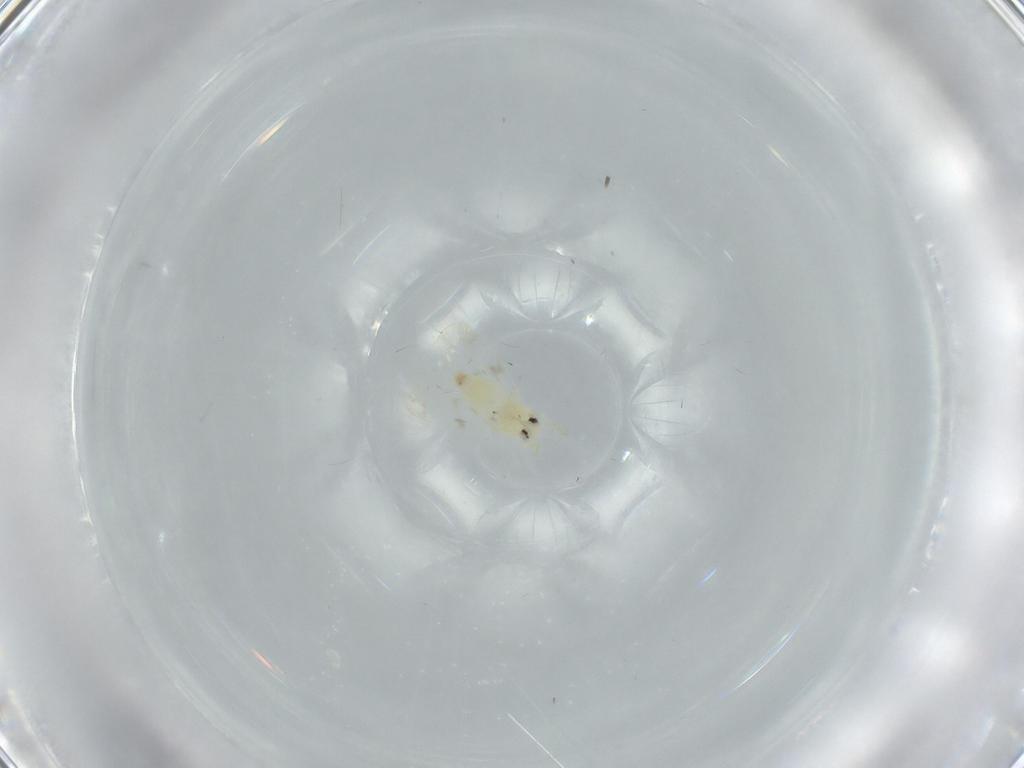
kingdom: Animalia
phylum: Arthropoda
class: Insecta
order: Hemiptera
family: Aleyrodidae
